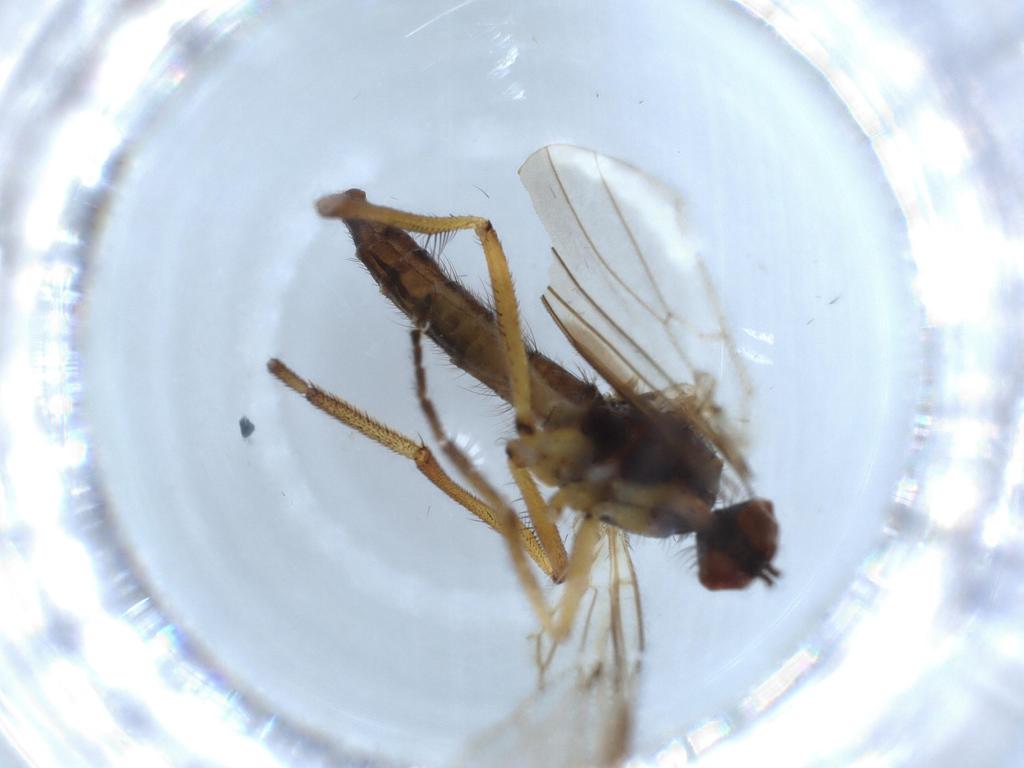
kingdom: Animalia
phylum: Arthropoda
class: Insecta
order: Diptera
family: Empididae
